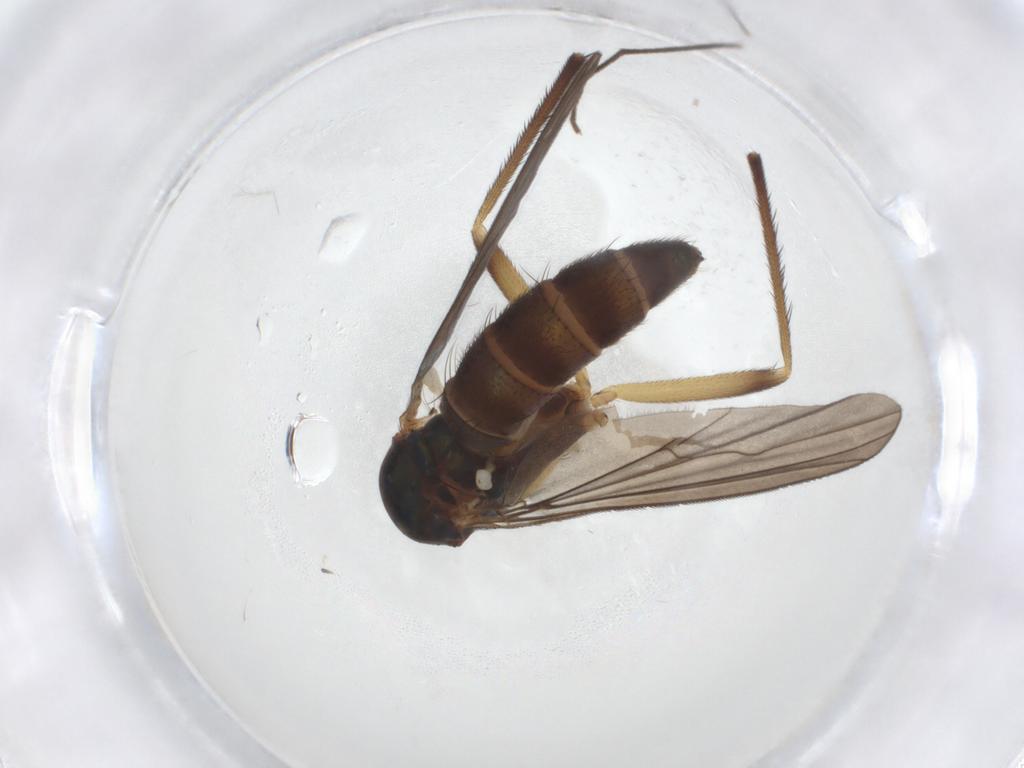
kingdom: Animalia
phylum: Arthropoda
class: Insecta
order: Diptera
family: Dolichopodidae
